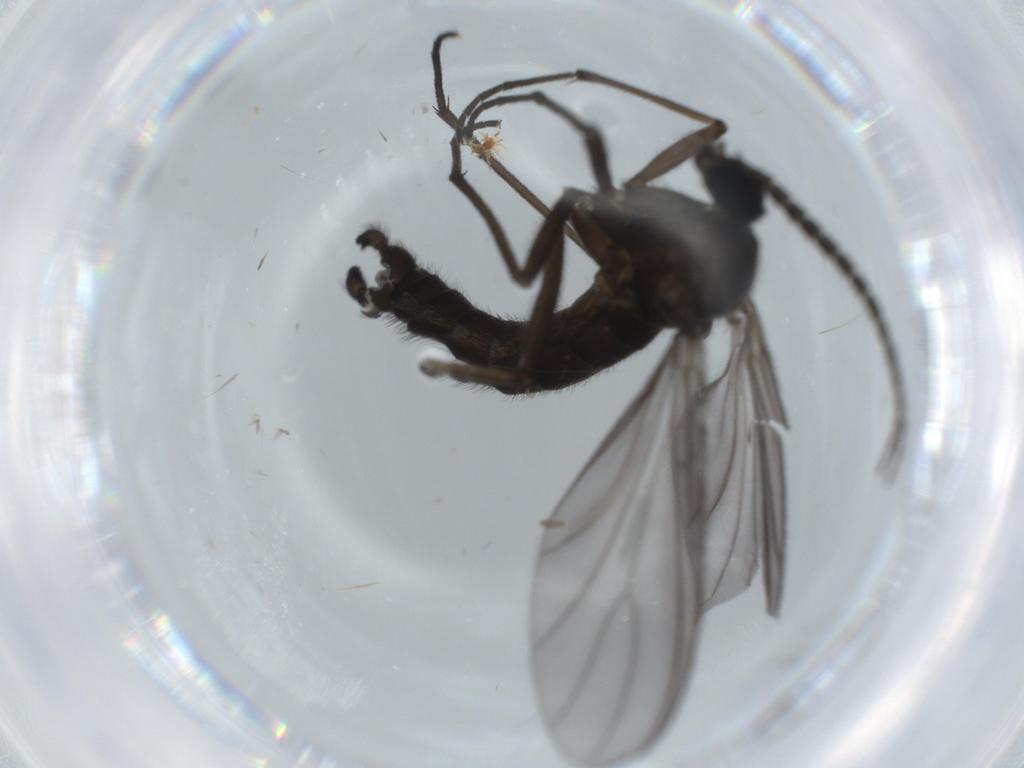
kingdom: Animalia
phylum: Arthropoda
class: Insecta
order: Diptera
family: Cecidomyiidae
